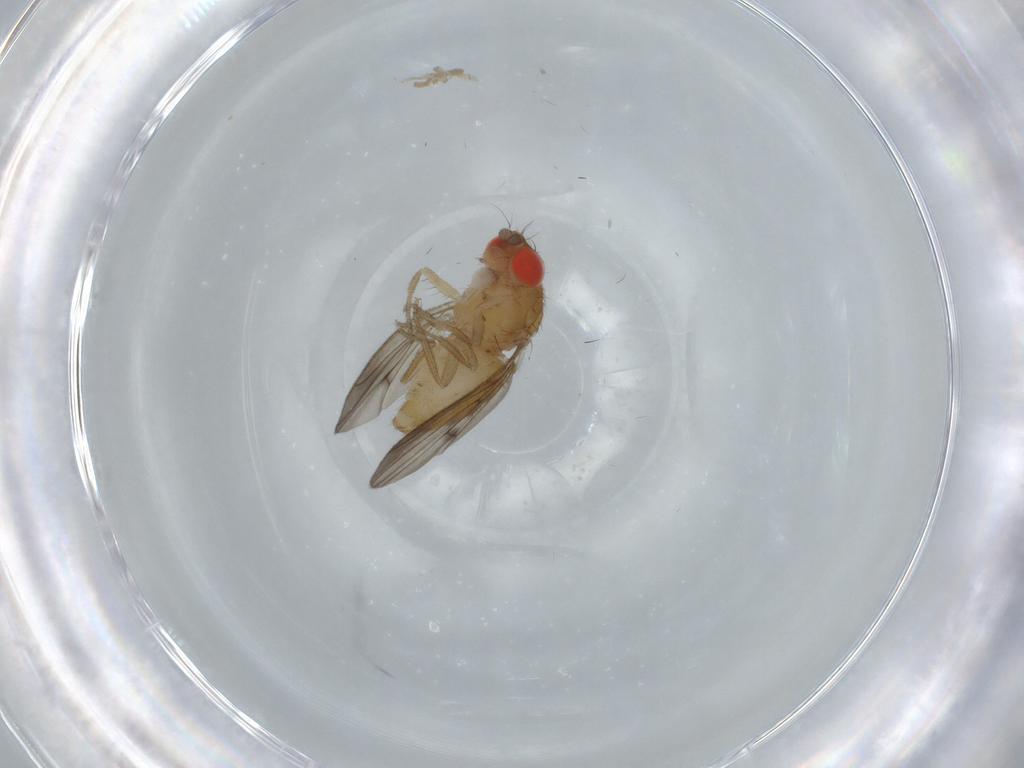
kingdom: Animalia
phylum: Arthropoda
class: Insecta
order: Diptera
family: Drosophilidae
